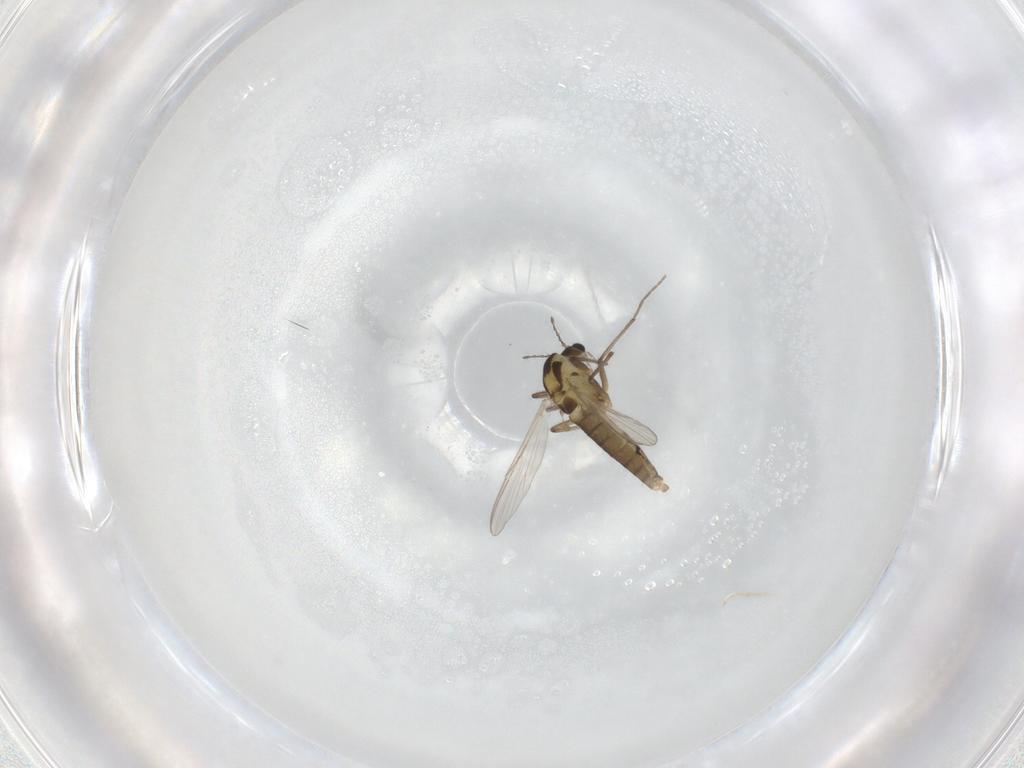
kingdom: Animalia
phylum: Arthropoda
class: Insecta
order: Diptera
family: Chironomidae
